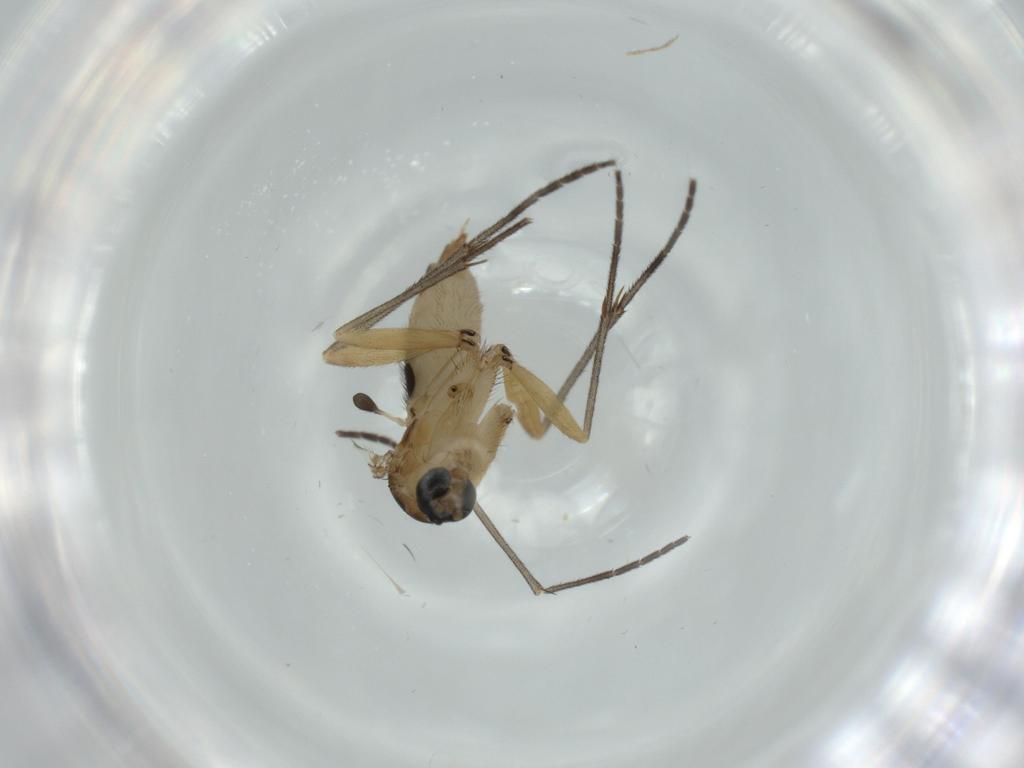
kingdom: Animalia
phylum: Arthropoda
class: Insecta
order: Diptera
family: Sciaridae
